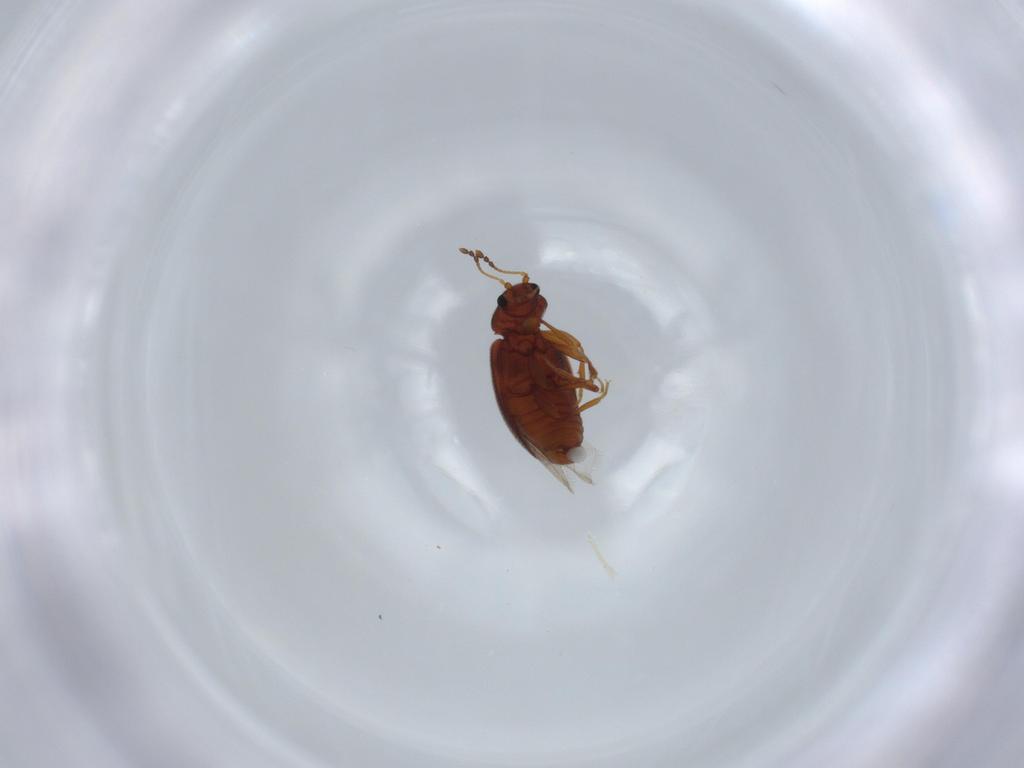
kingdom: Animalia
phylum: Arthropoda
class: Insecta
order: Coleoptera
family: Latridiidae
